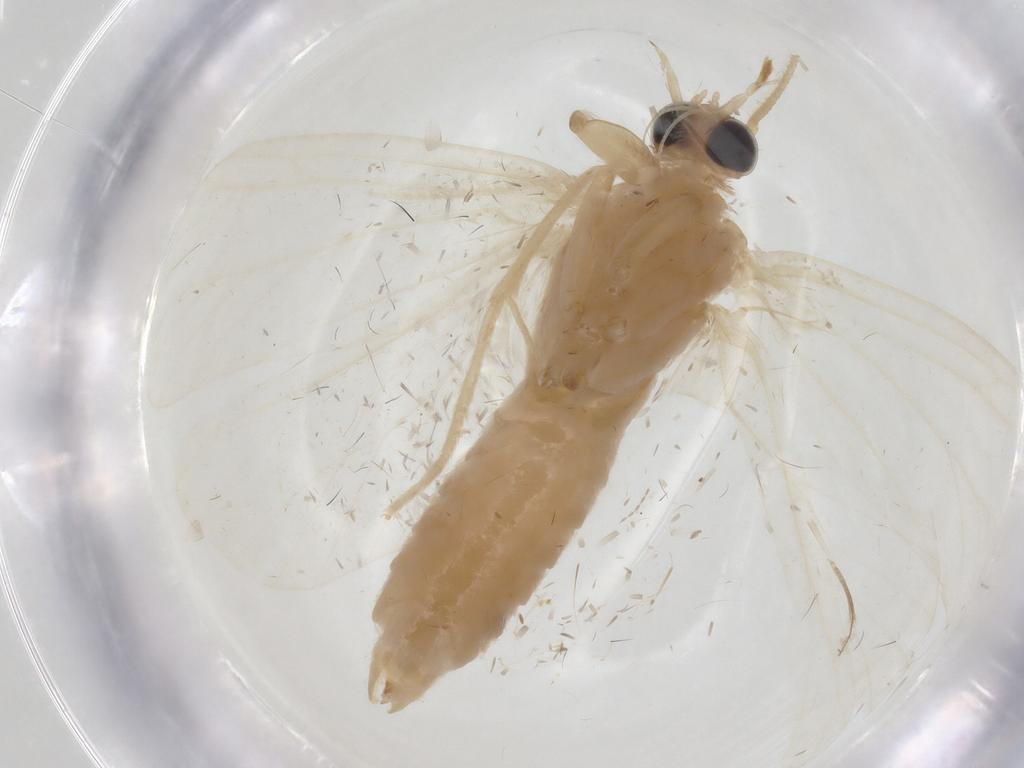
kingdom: Animalia
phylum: Arthropoda
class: Insecta
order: Lepidoptera
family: Crambidae
